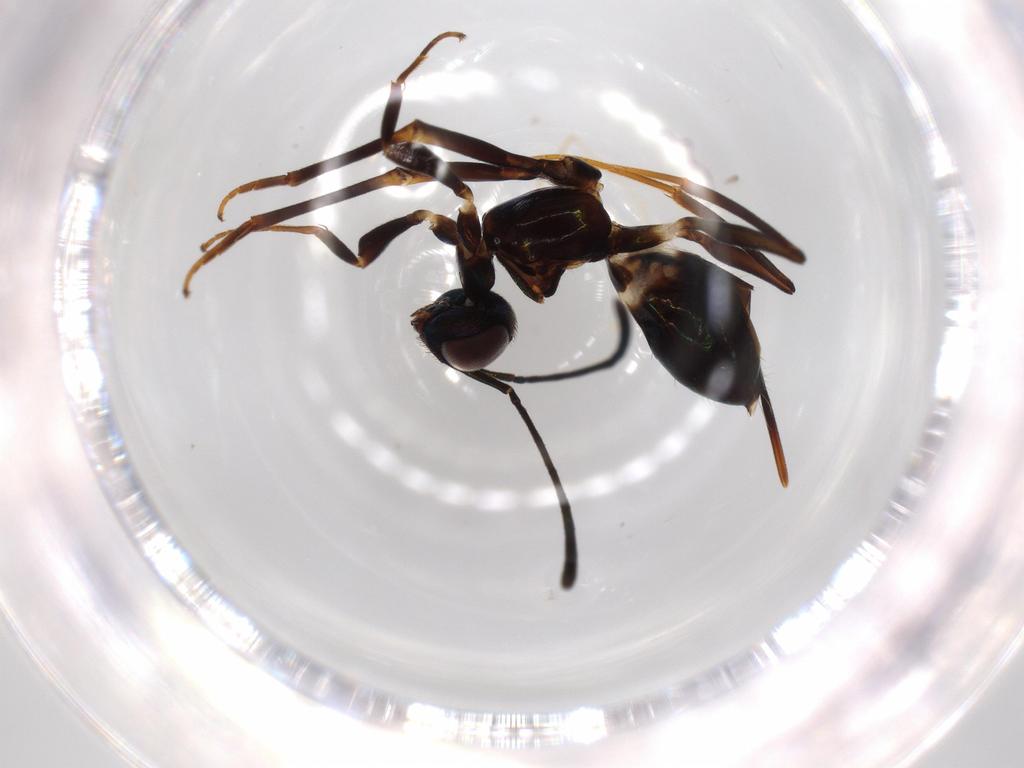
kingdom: Animalia
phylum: Arthropoda
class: Insecta
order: Hymenoptera
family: Eupelmidae
